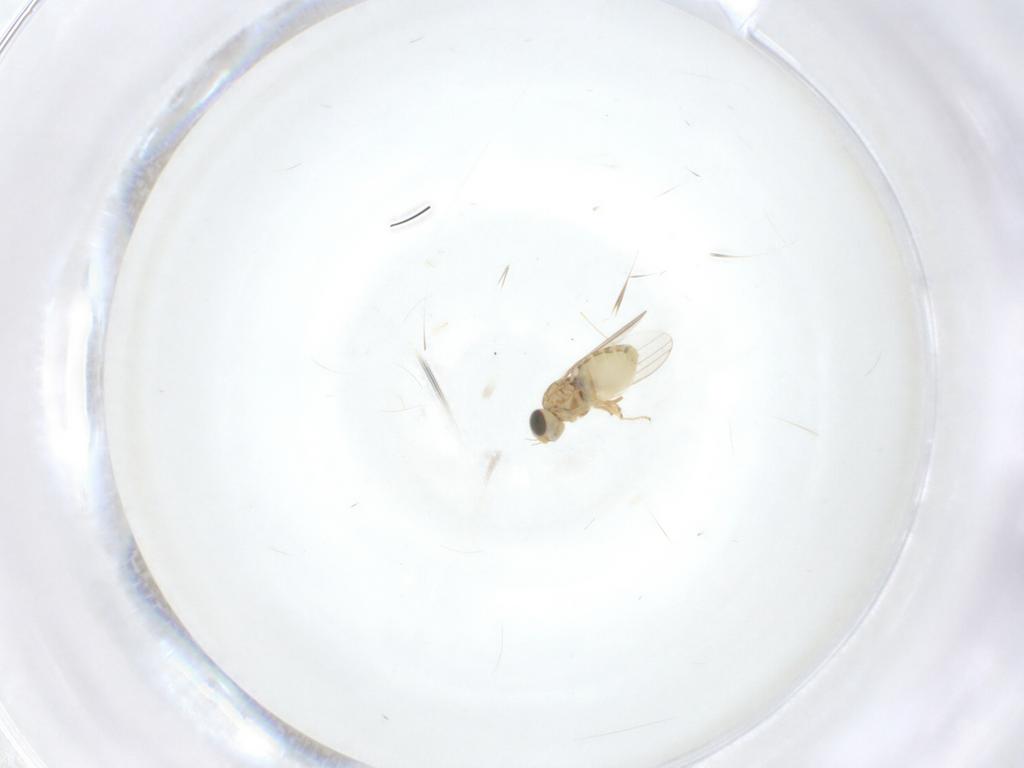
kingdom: Animalia
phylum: Arthropoda
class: Insecta
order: Diptera
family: Chyromyidae
